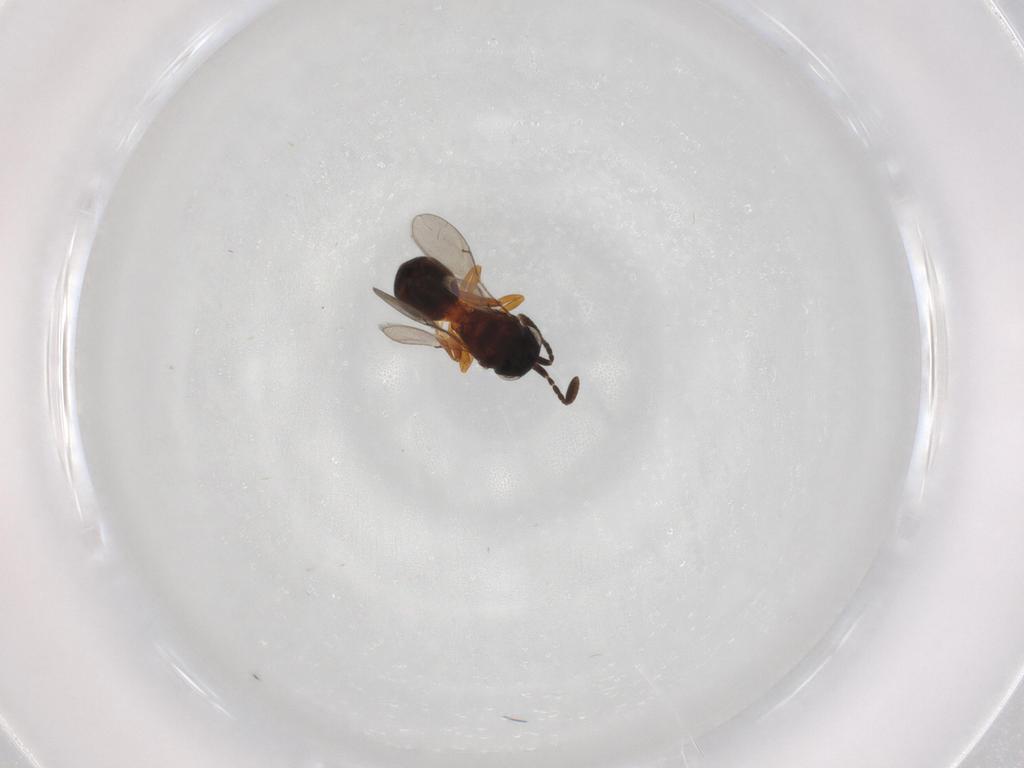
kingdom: Animalia
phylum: Arthropoda
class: Insecta
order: Hymenoptera
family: Scelionidae
